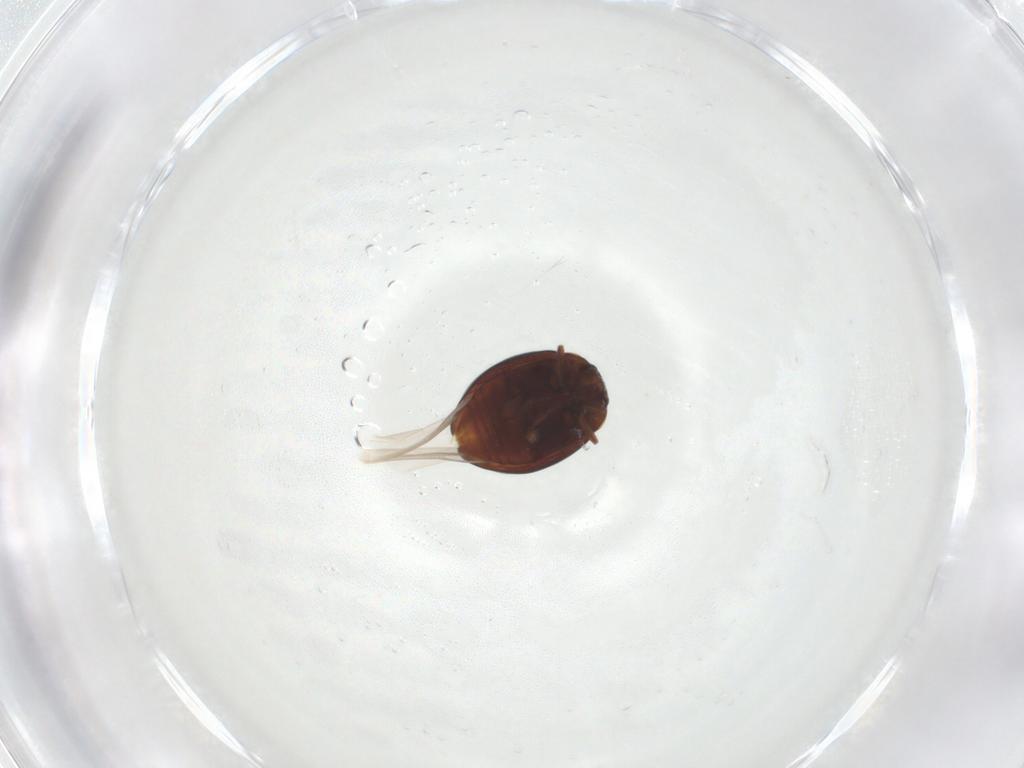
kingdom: Animalia
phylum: Arthropoda
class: Insecta
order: Coleoptera
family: Coccinellidae
